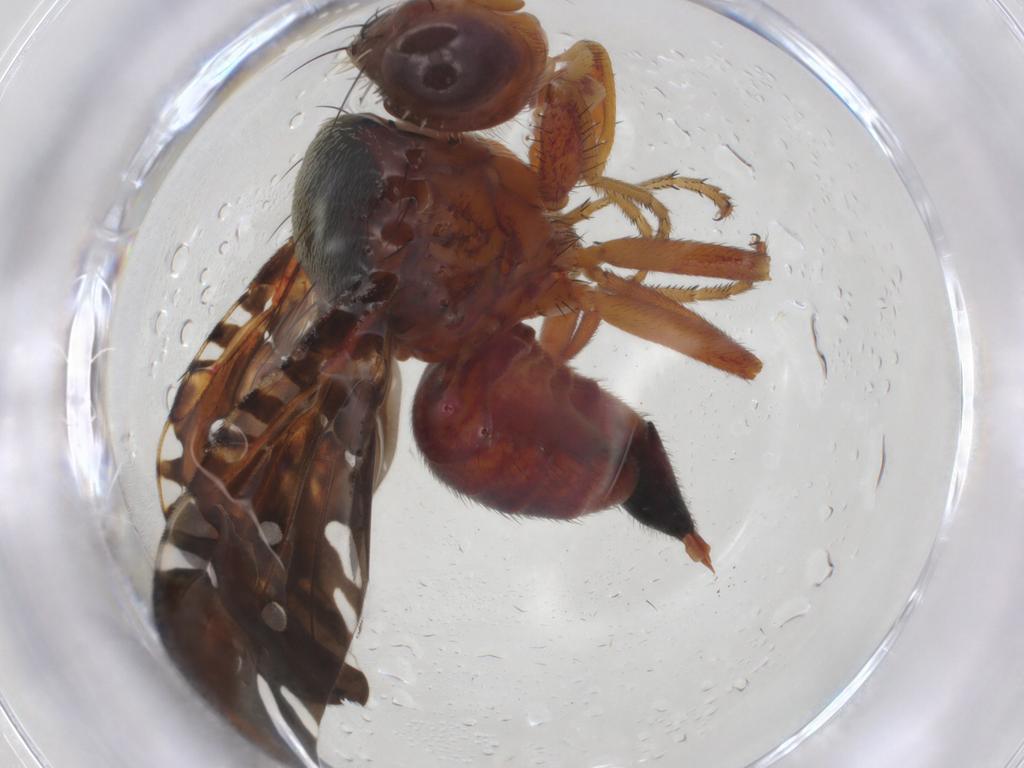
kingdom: Animalia
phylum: Arthropoda
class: Insecta
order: Diptera
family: Tephritidae
